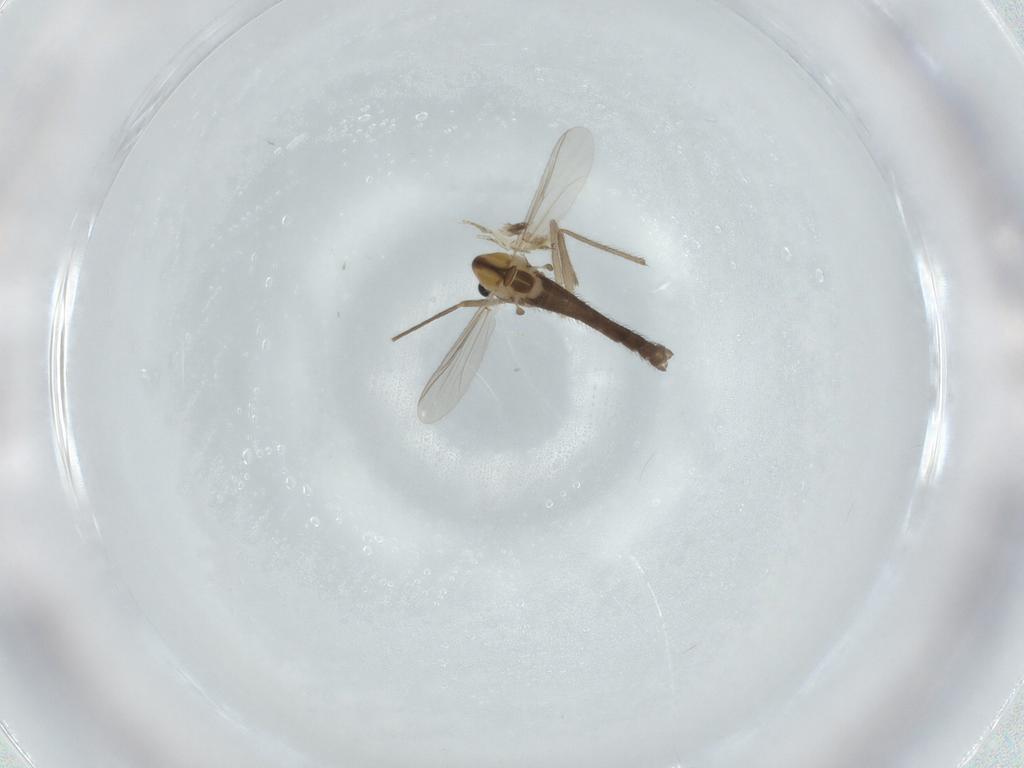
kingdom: Animalia
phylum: Arthropoda
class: Insecta
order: Diptera
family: Chironomidae
